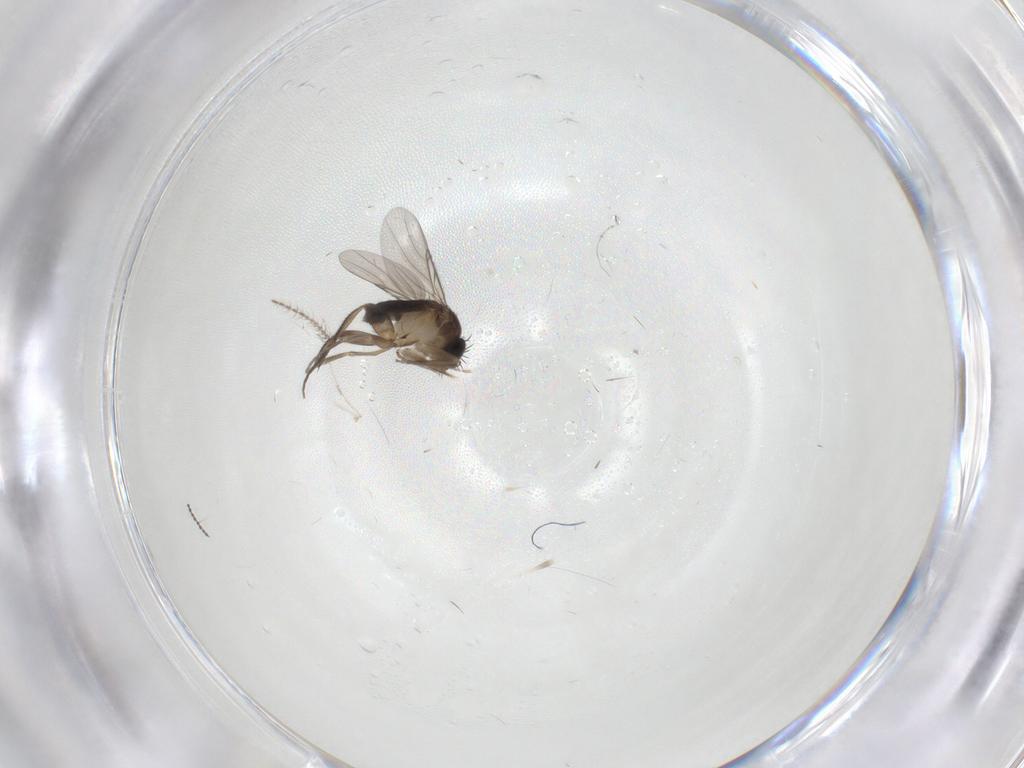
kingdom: Animalia
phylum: Arthropoda
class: Insecta
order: Diptera
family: Phoridae
